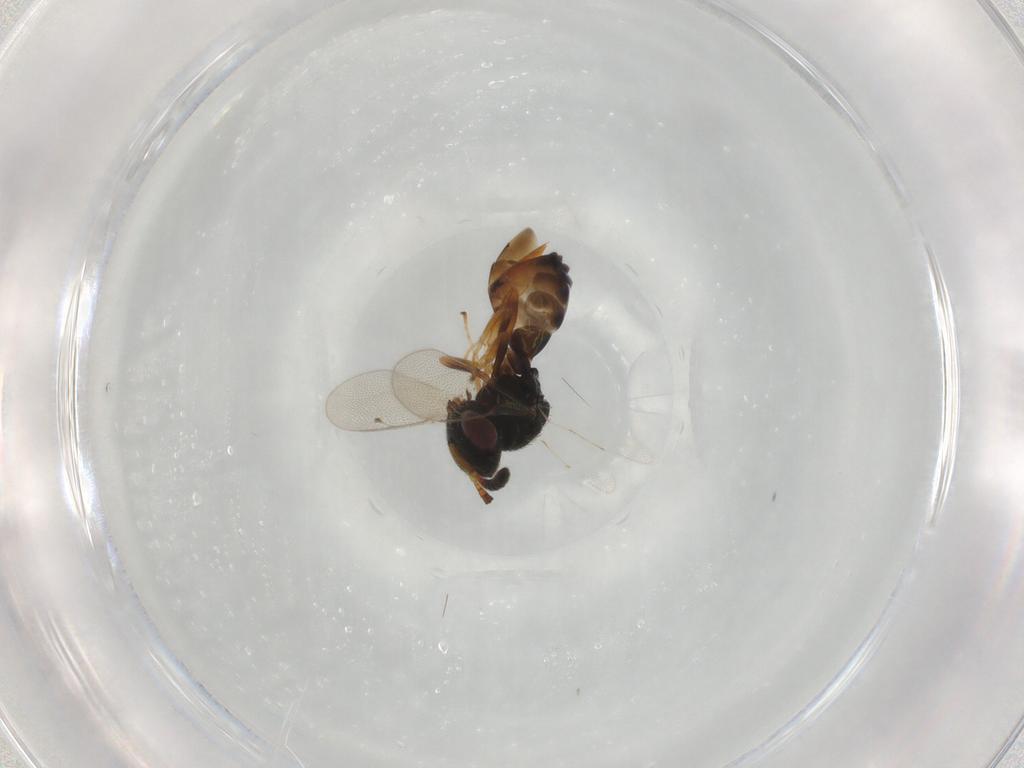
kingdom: Animalia
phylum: Arthropoda
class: Insecta
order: Hymenoptera
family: Agaonidae
